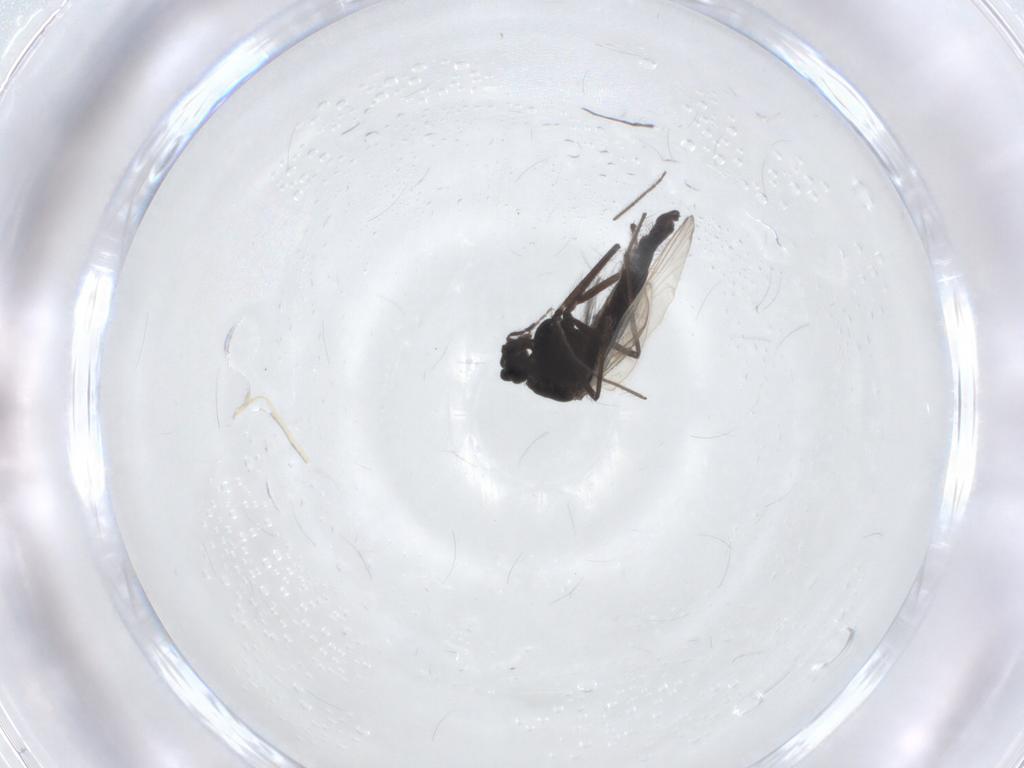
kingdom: Animalia
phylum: Arthropoda
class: Insecta
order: Diptera
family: Chironomidae
